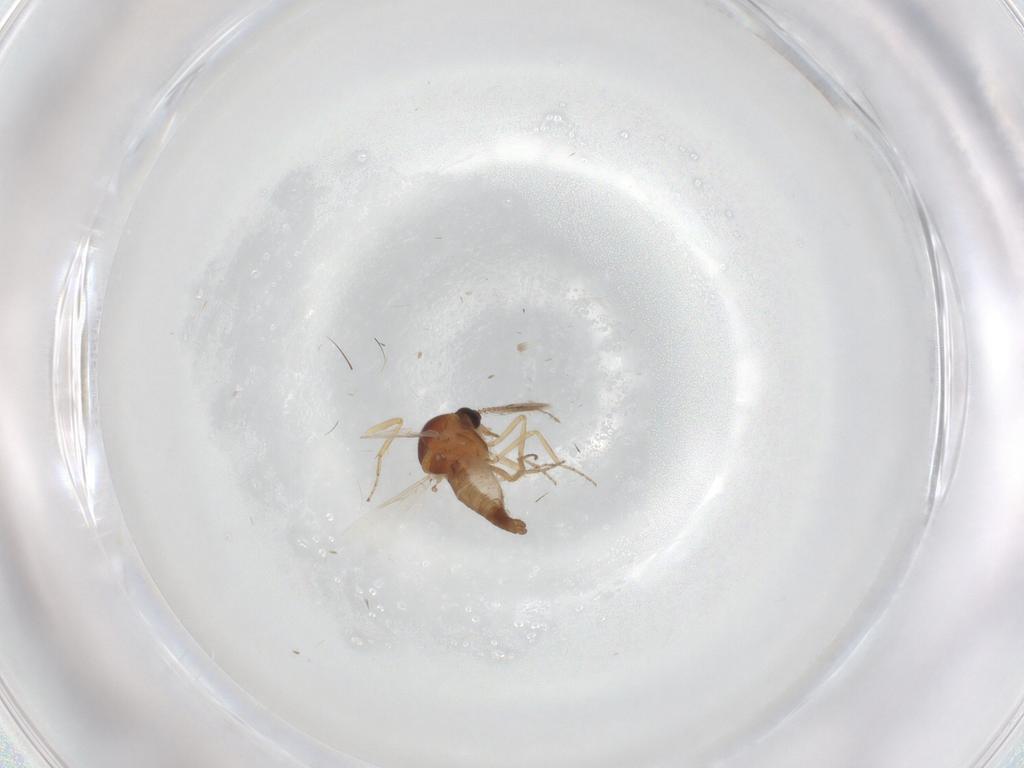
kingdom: Animalia
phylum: Arthropoda
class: Insecta
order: Diptera
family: Ceratopogonidae
